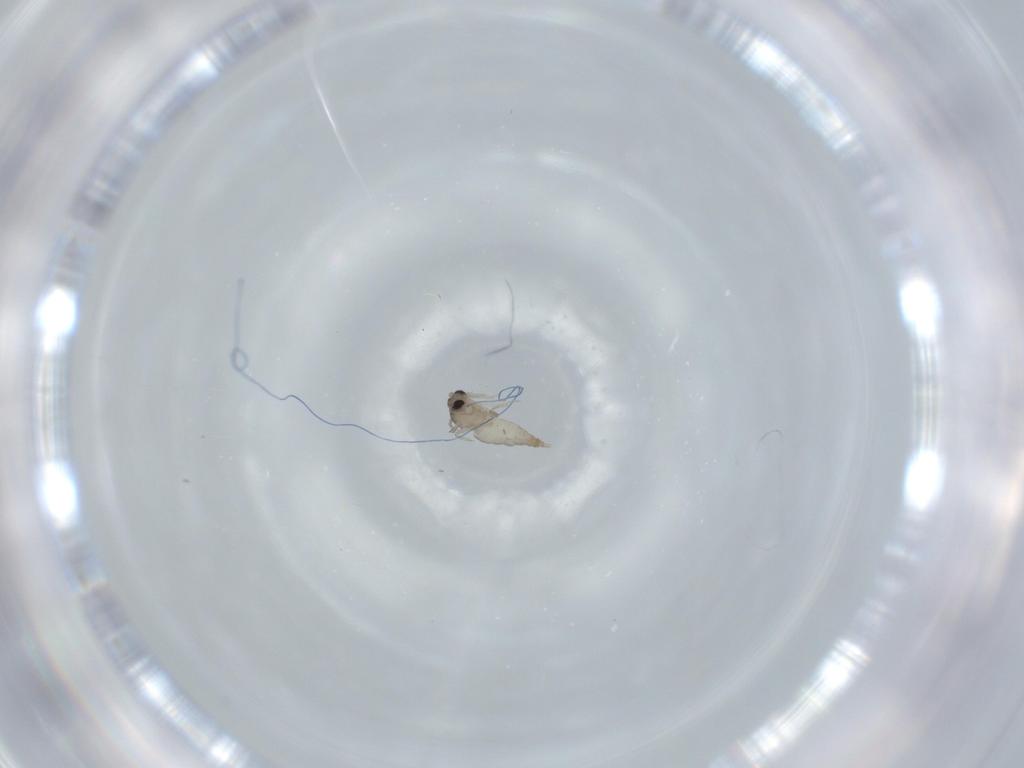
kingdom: Animalia
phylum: Arthropoda
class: Insecta
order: Diptera
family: Cecidomyiidae
